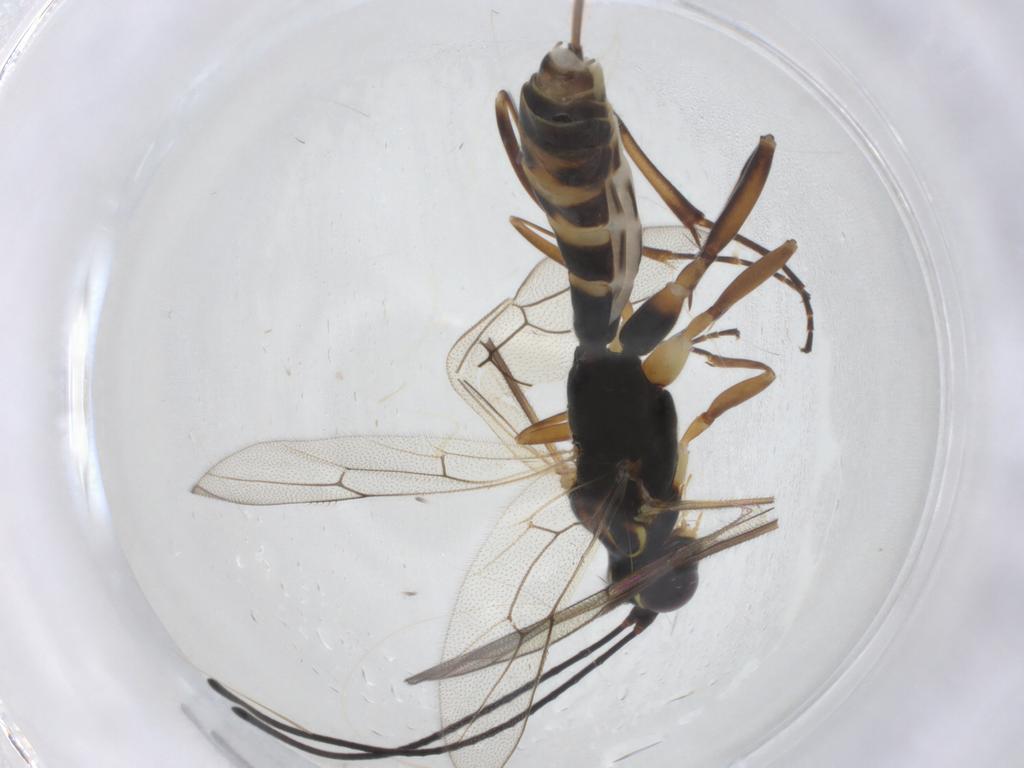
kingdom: Animalia
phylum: Arthropoda
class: Insecta
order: Hymenoptera
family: Ichneumonidae
